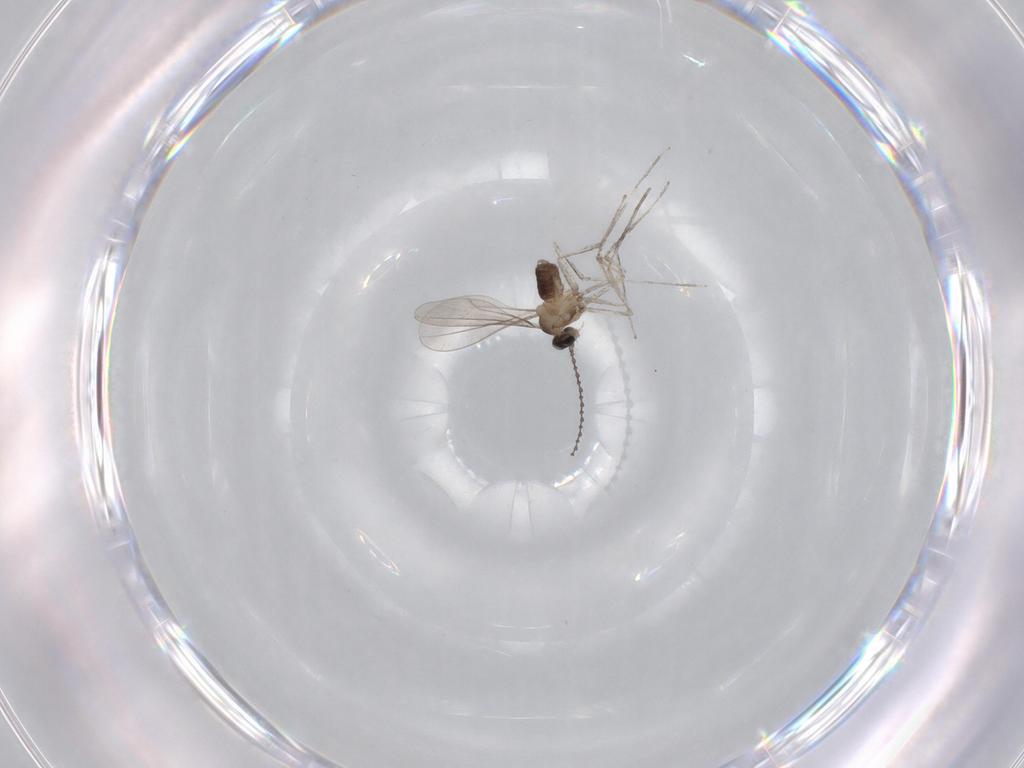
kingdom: Animalia
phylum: Arthropoda
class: Insecta
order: Diptera
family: Cecidomyiidae
